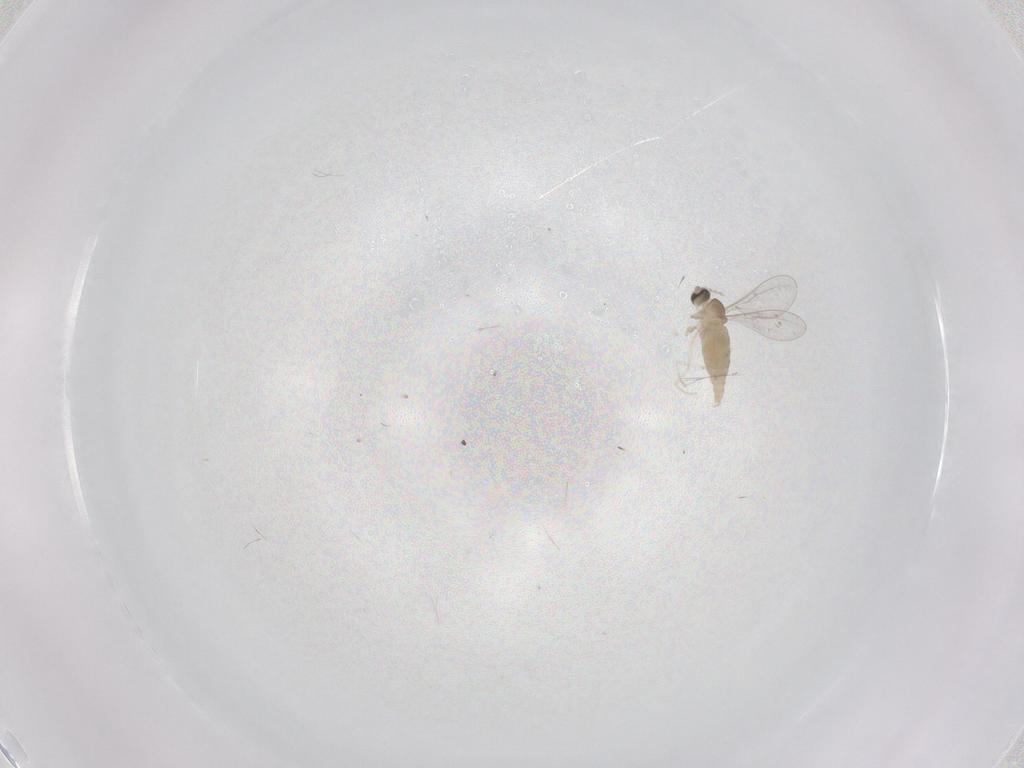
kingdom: Animalia
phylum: Arthropoda
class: Insecta
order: Diptera
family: Cecidomyiidae
